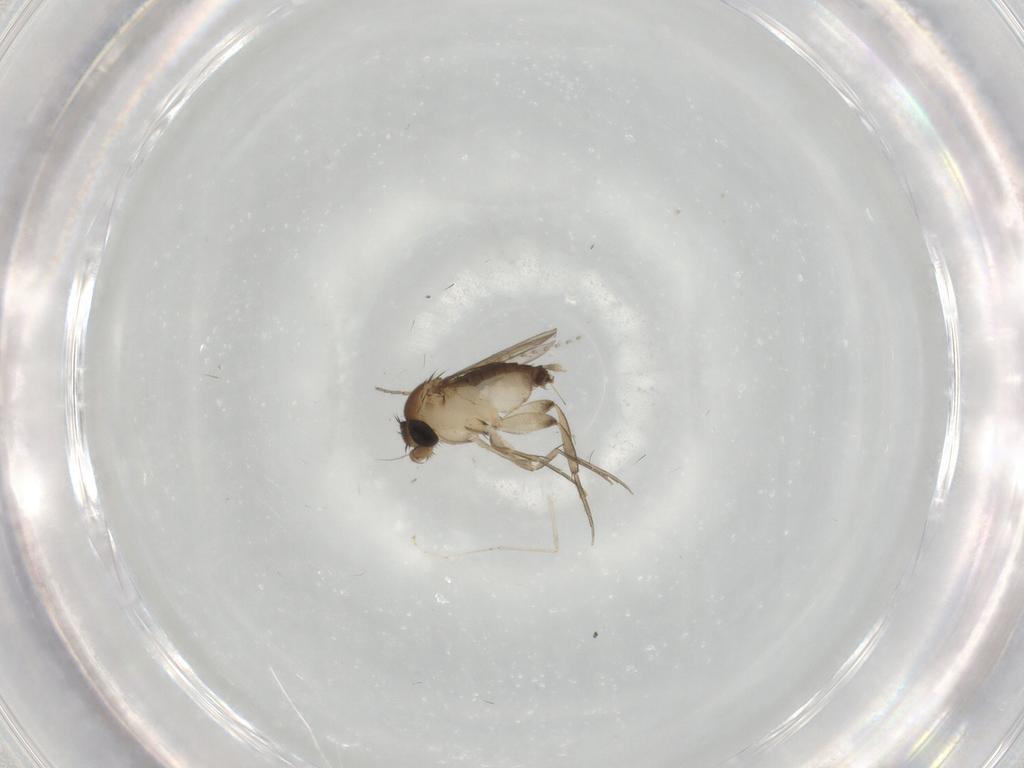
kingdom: Animalia
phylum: Arthropoda
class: Insecta
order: Diptera
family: Phoridae
